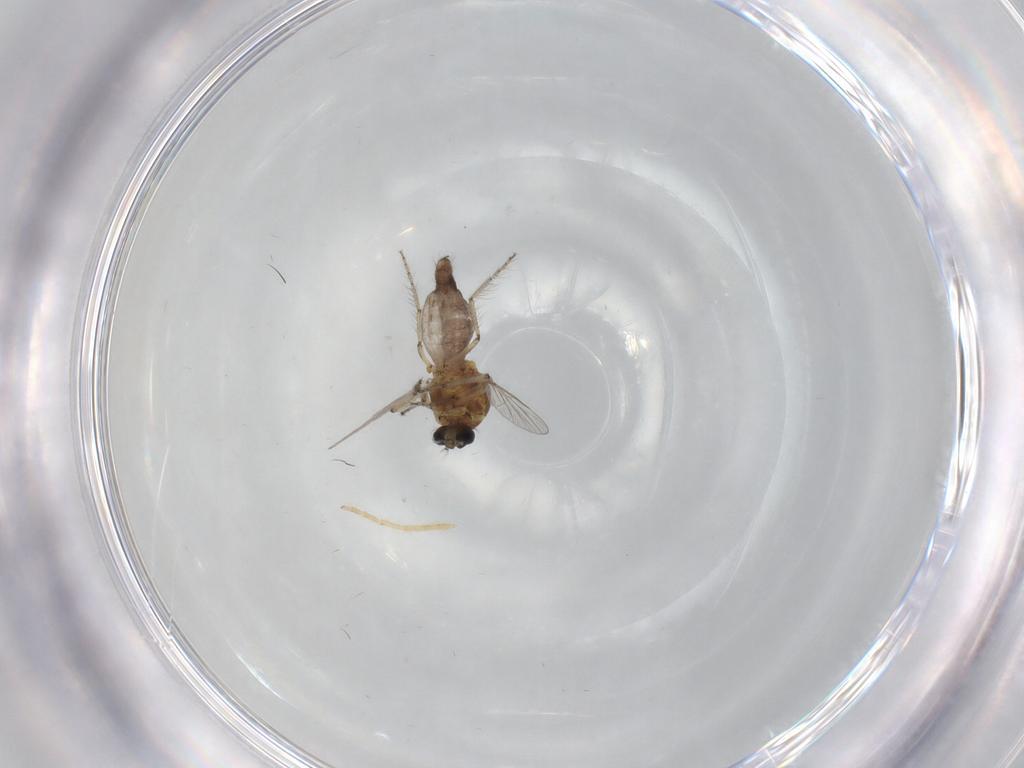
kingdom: Animalia
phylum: Arthropoda
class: Insecta
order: Diptera
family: Ceratopogonidae
